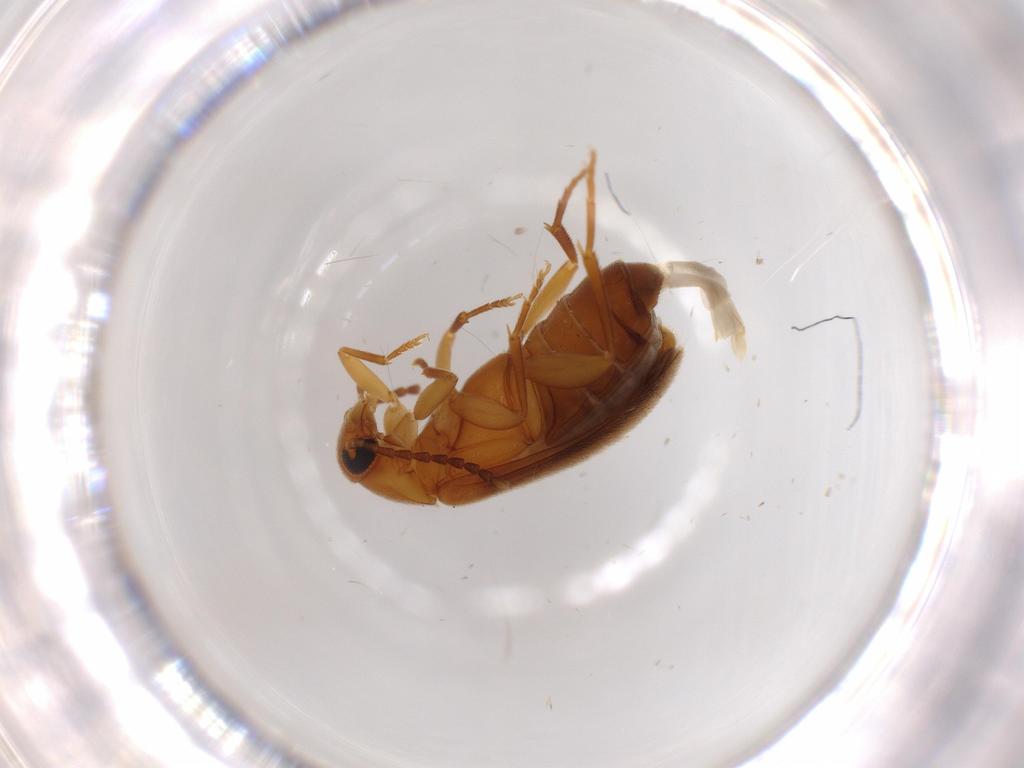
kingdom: Animalia
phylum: Arthropoda
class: Insecta
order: Coleoptera
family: Scraptiidae
